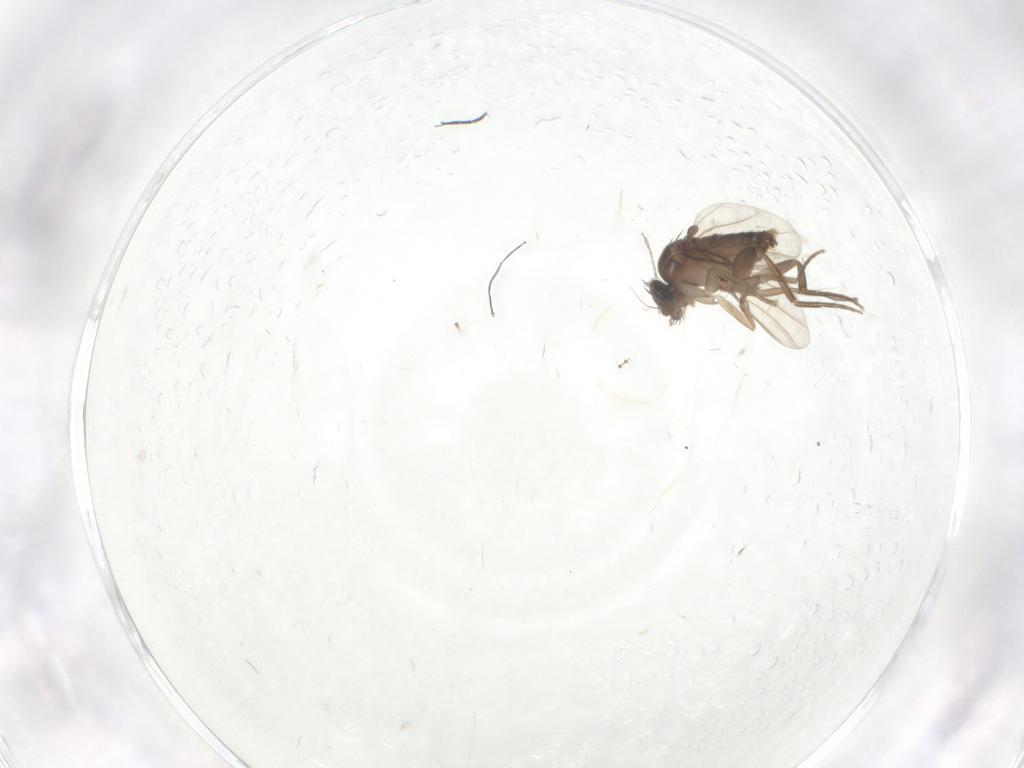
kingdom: Animalia
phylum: Arthropoda
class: Insecta
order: Diptera
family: Phoridae
